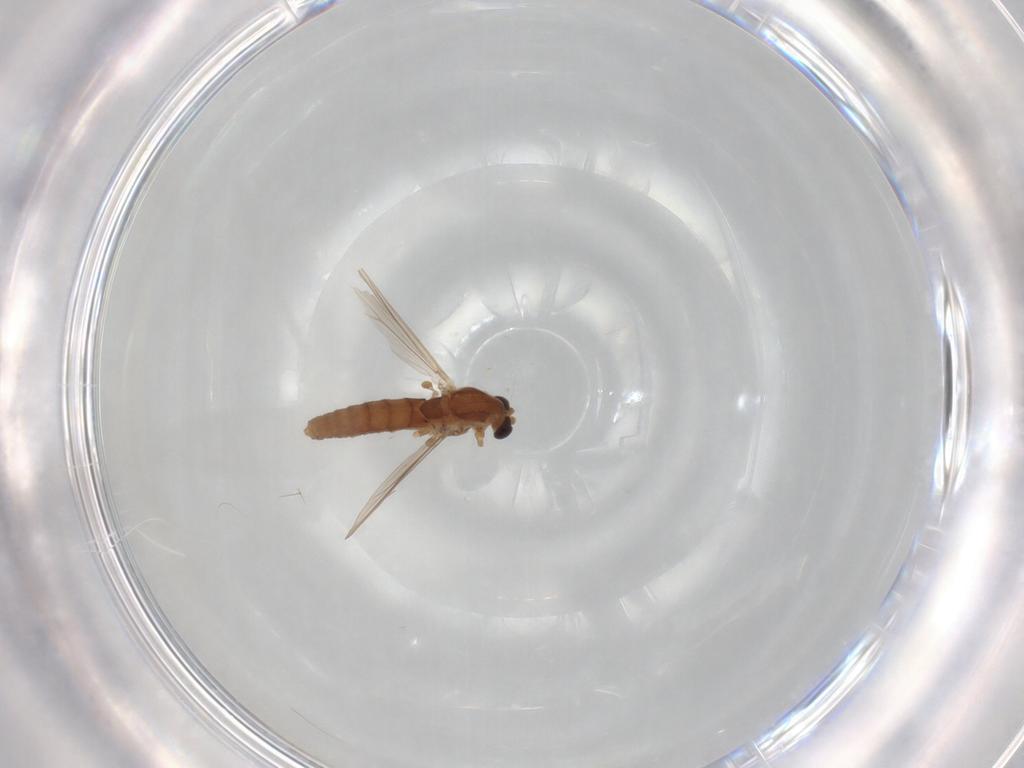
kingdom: Animalia
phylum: Arthropoda
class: Insecta
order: Diptera
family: Chironomidae
